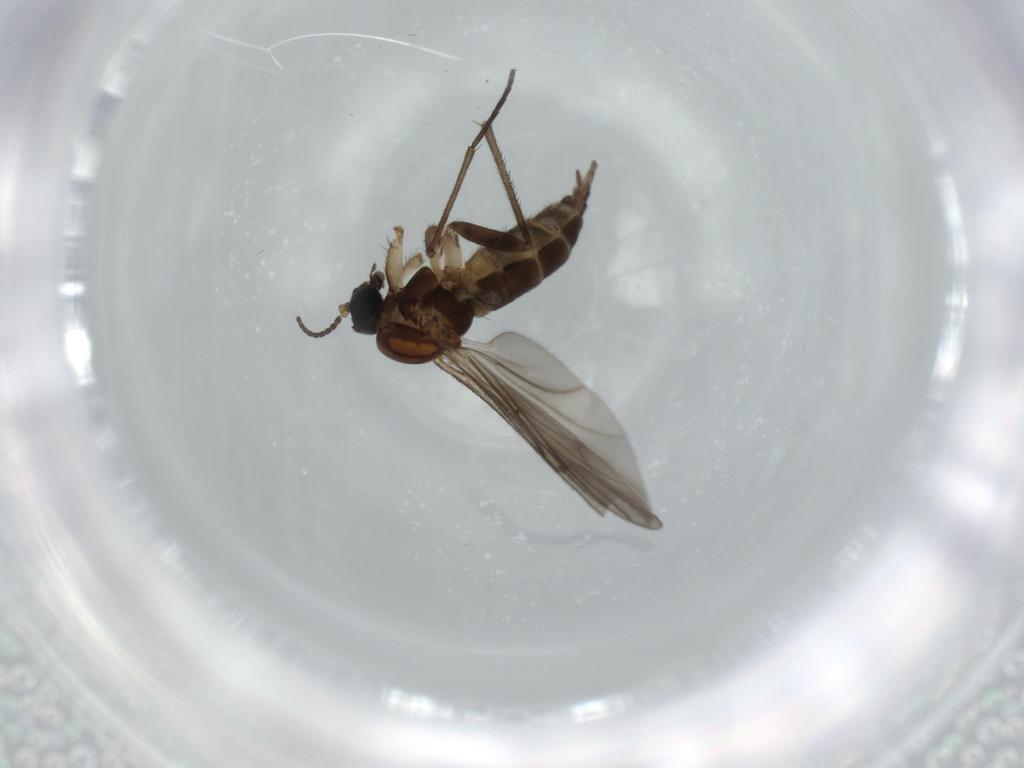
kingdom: Animalia
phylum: Arthropoda
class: Insecta
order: Diptera
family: Sciaridae
